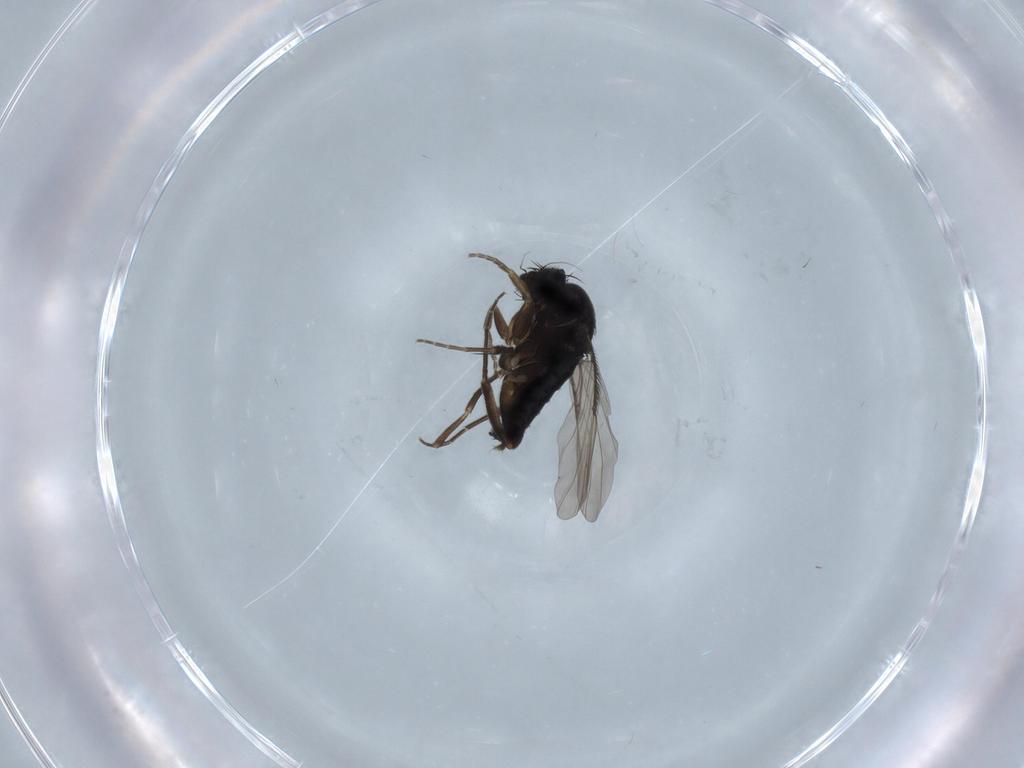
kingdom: Animalia
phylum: Arthropoda
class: Insecta
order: Diptera
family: Phoridae
